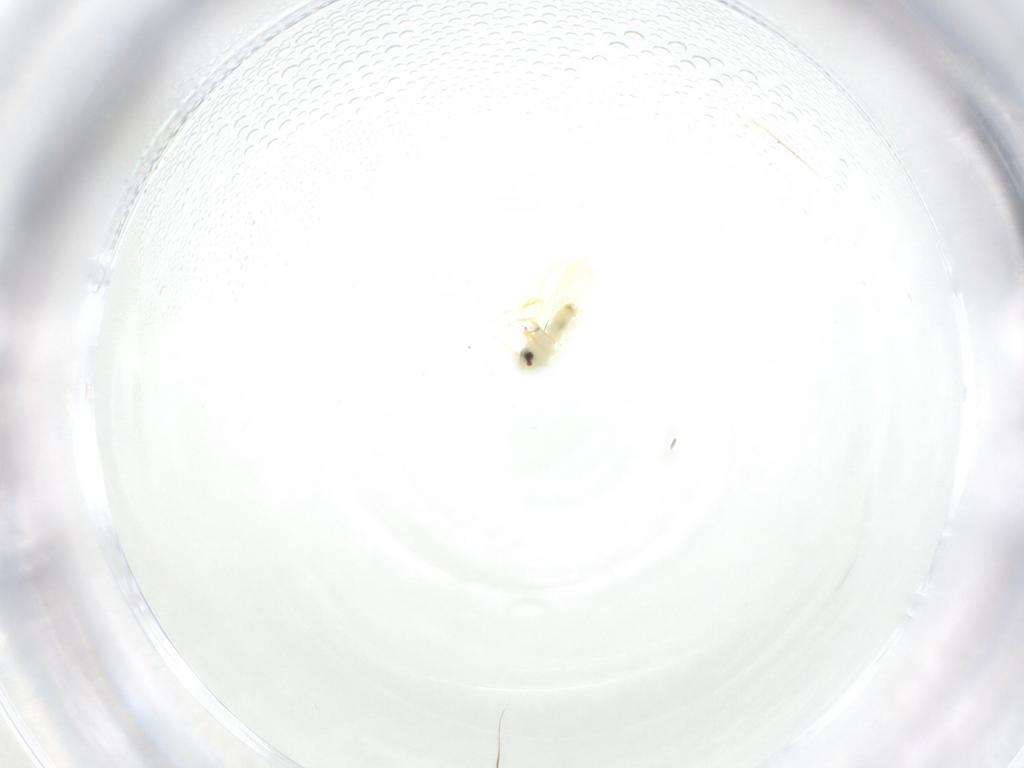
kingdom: Animalia
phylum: Arthropoda
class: Insecta
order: Hemiptera
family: Aleyrodidae
